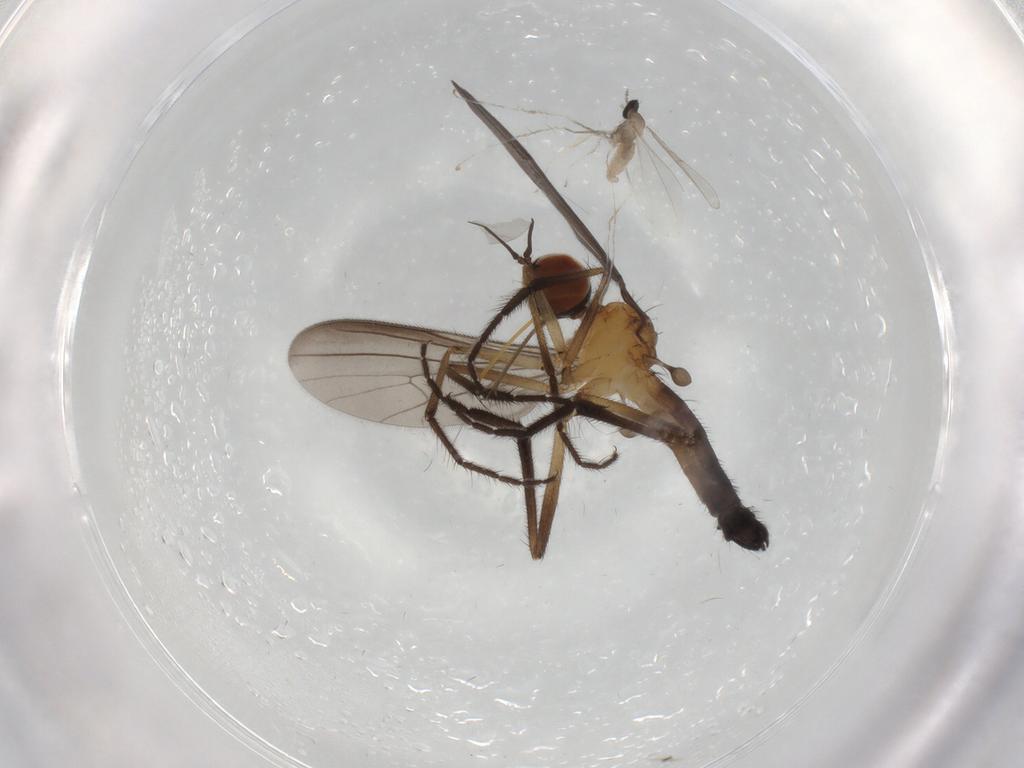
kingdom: Animalia
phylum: Arthropoda
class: Insecta
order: Diptera
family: Empididae
